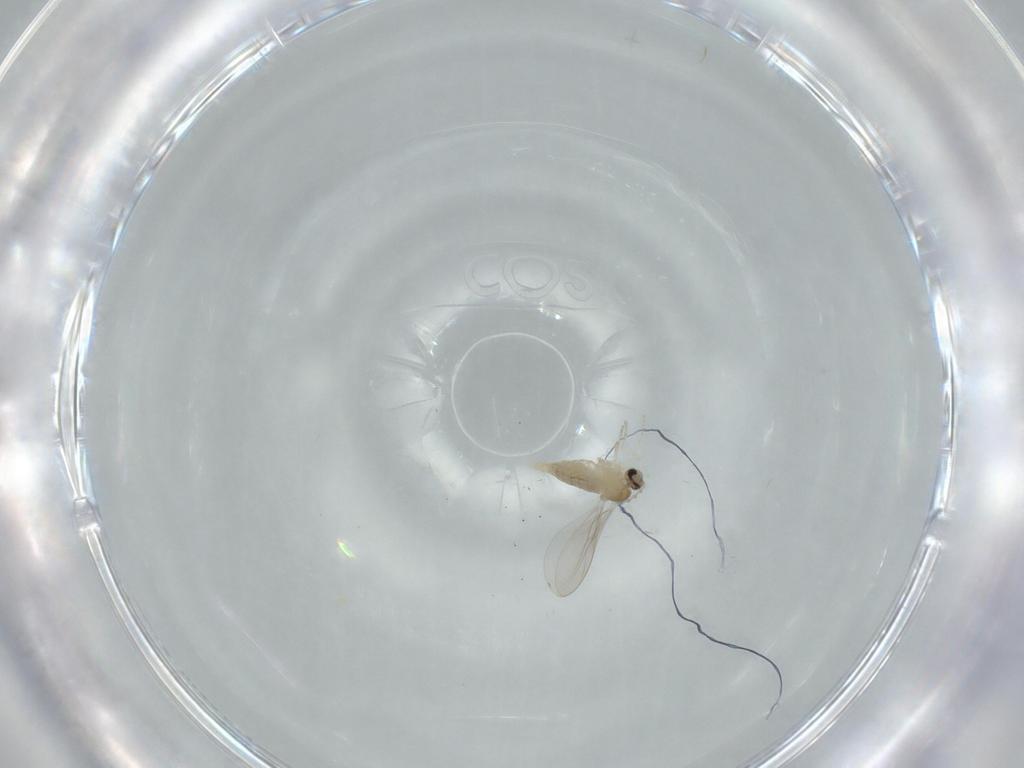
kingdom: Animalia
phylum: Arthropoda
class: Insecta
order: Diptera
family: Cecidomyiidae
